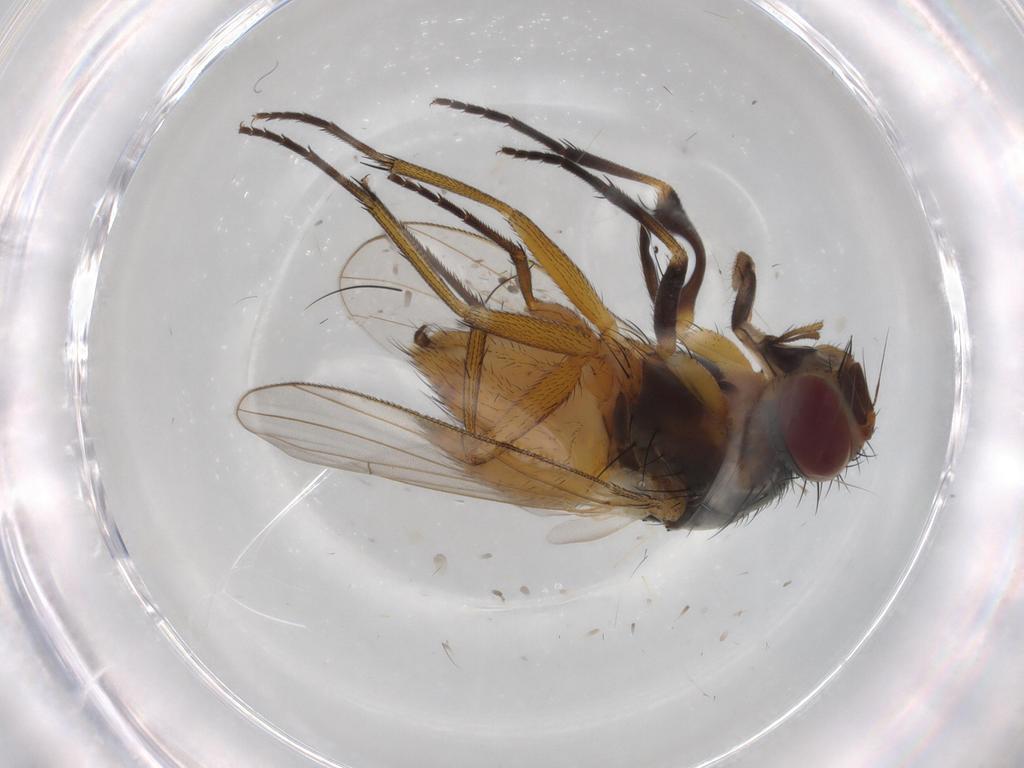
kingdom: Animalia
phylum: Arthropoda
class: Insecta
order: Diptera
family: Muscidae
